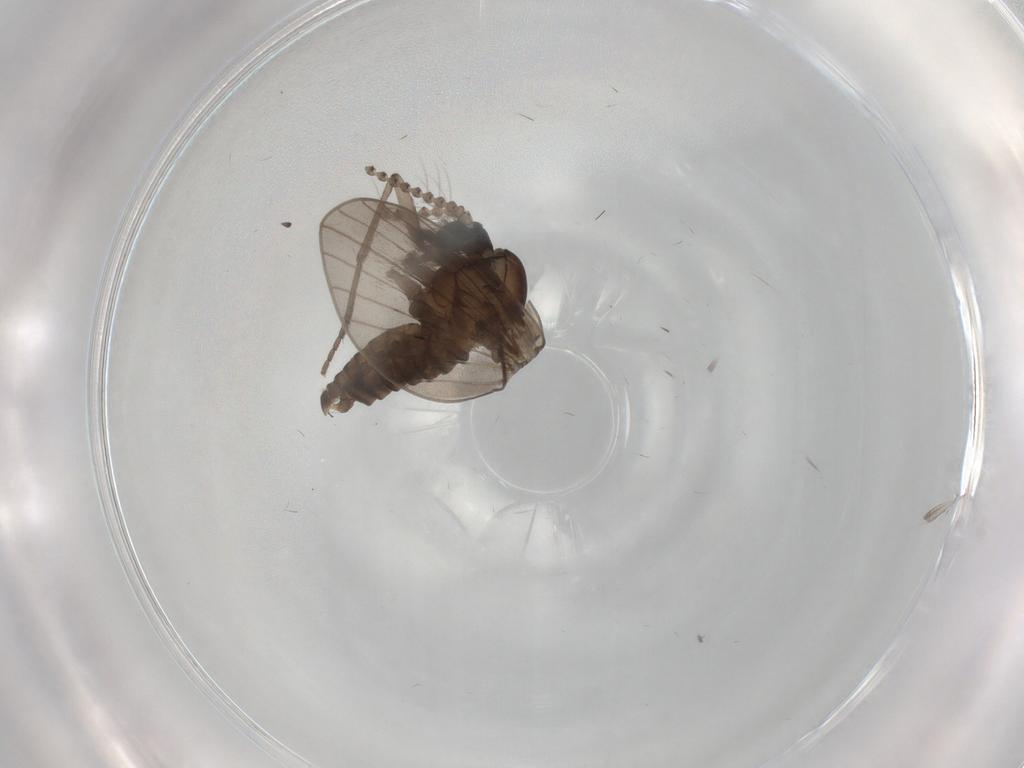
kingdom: Animalia
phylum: Arthropoda
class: Insecta
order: Diptera
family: Psychodidae
